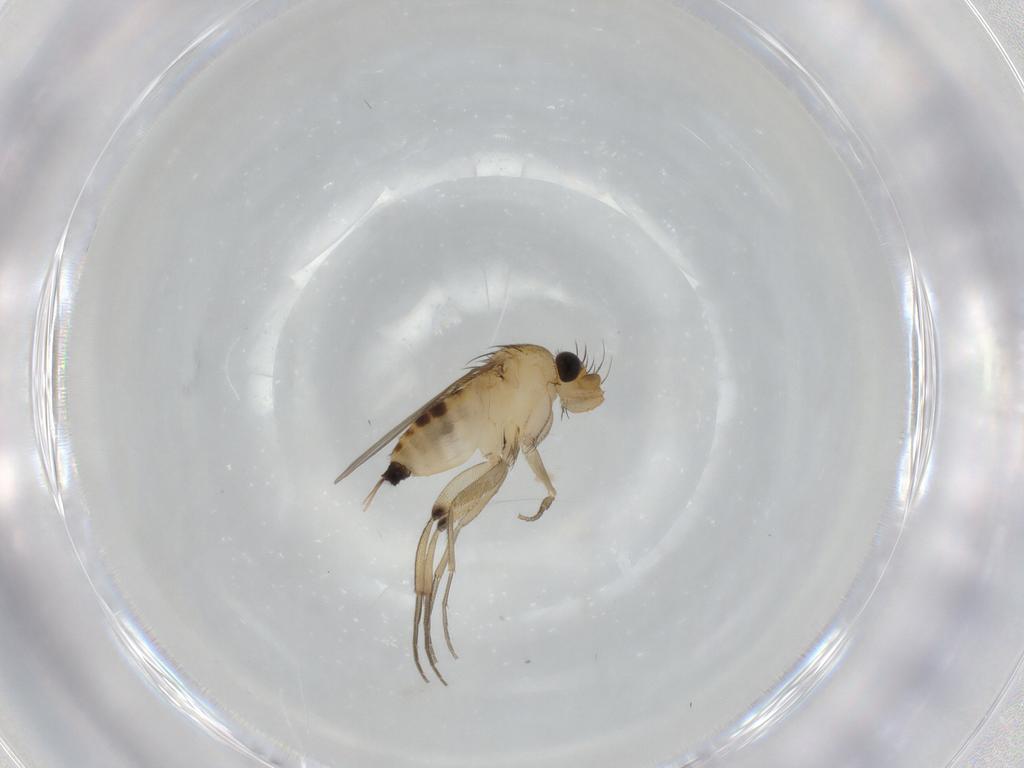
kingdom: Animalia
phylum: Arthropoda
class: Insecta
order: Diptera
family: Phoridae
